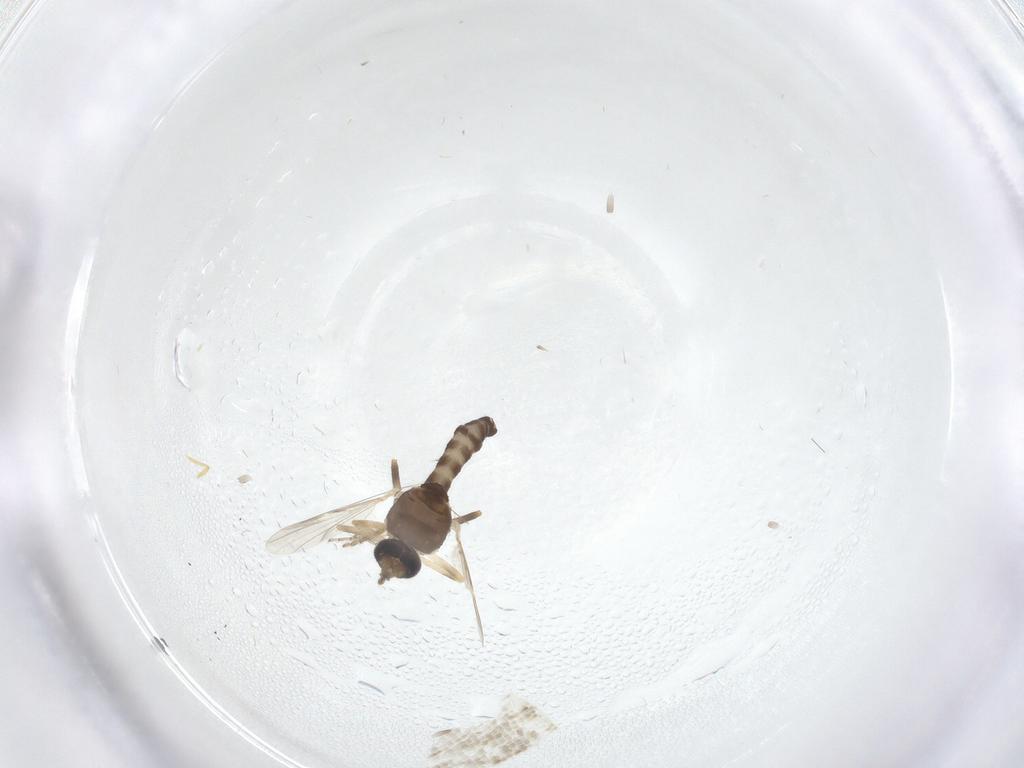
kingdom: Animalia
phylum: Arthropoda
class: Insecta
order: Diptera
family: Ceratopogonidae
